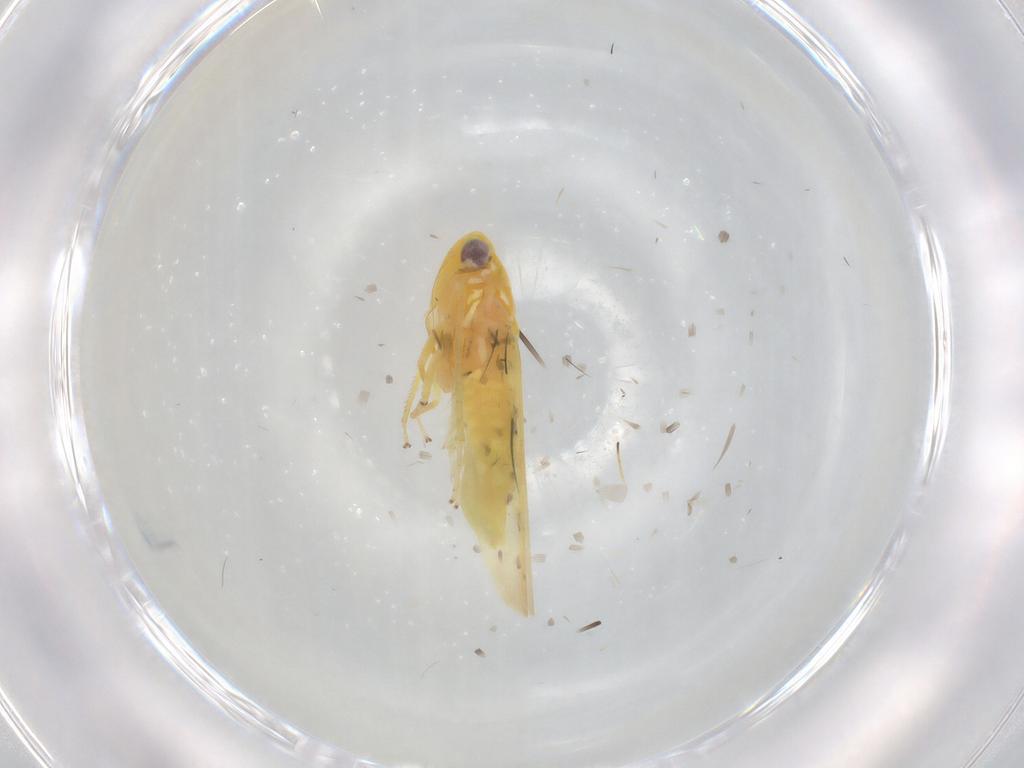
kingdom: Animalia
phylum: Arthropoda
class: Insecta
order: Hemiptera
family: Cicadellidae
